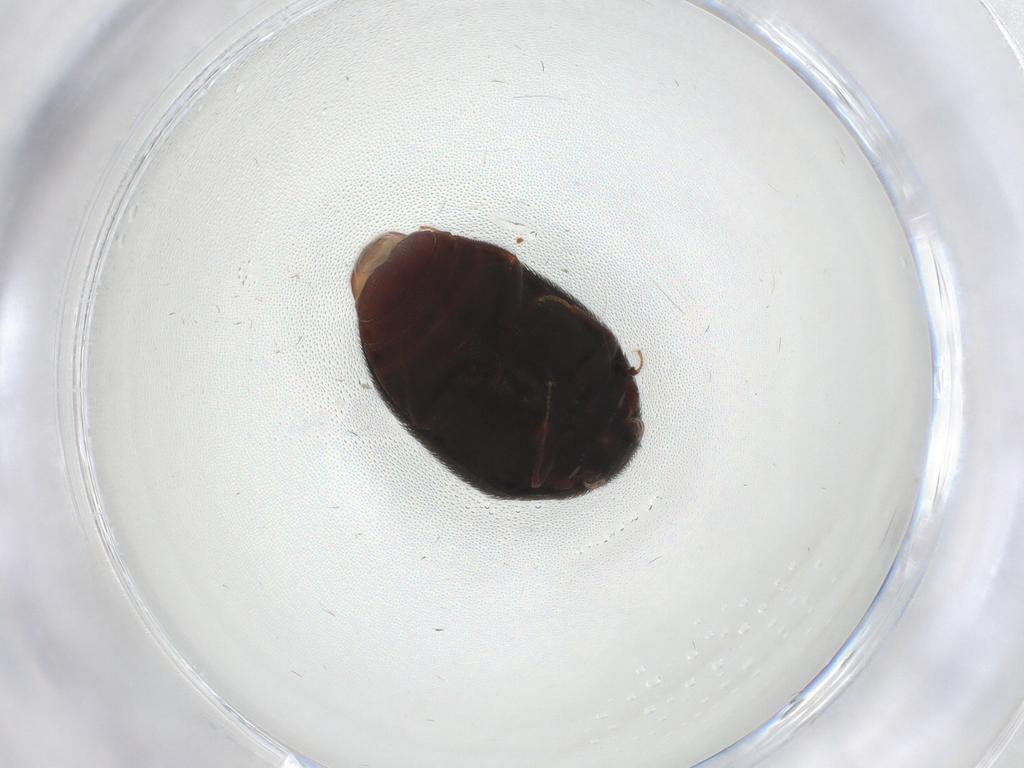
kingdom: Animalia
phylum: Arthropoda
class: Insecta
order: Coleoptera
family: Dermestidae
